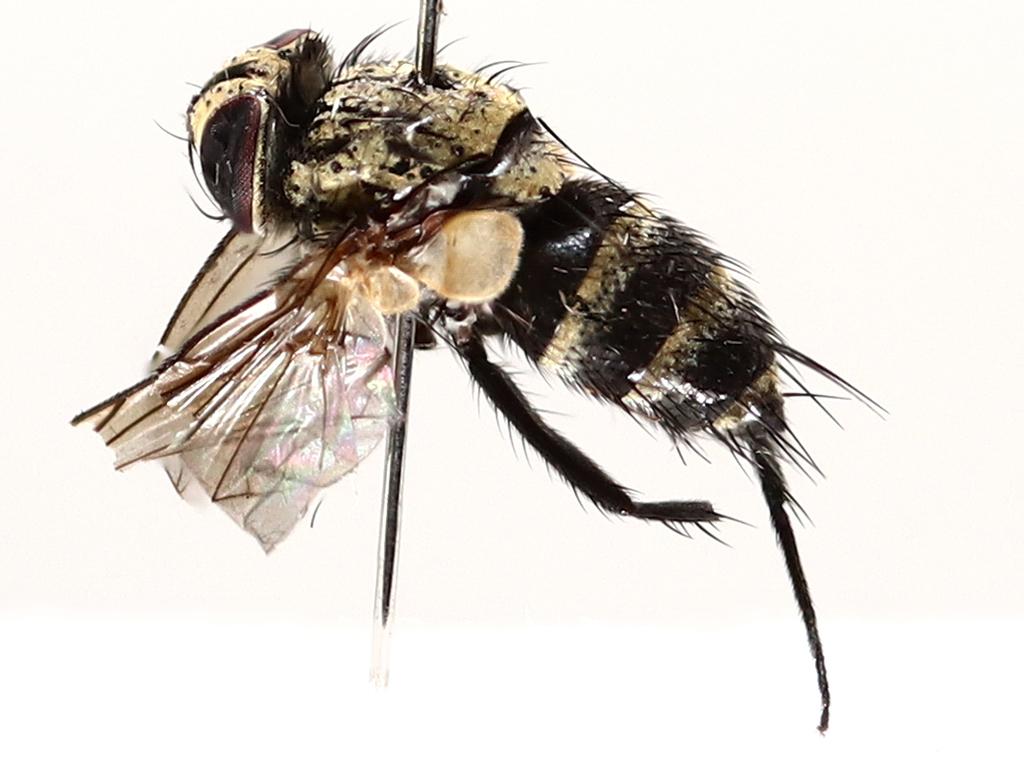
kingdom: Animalia
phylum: Arthropoda
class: Insecta
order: Diptera
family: Chironomidae
